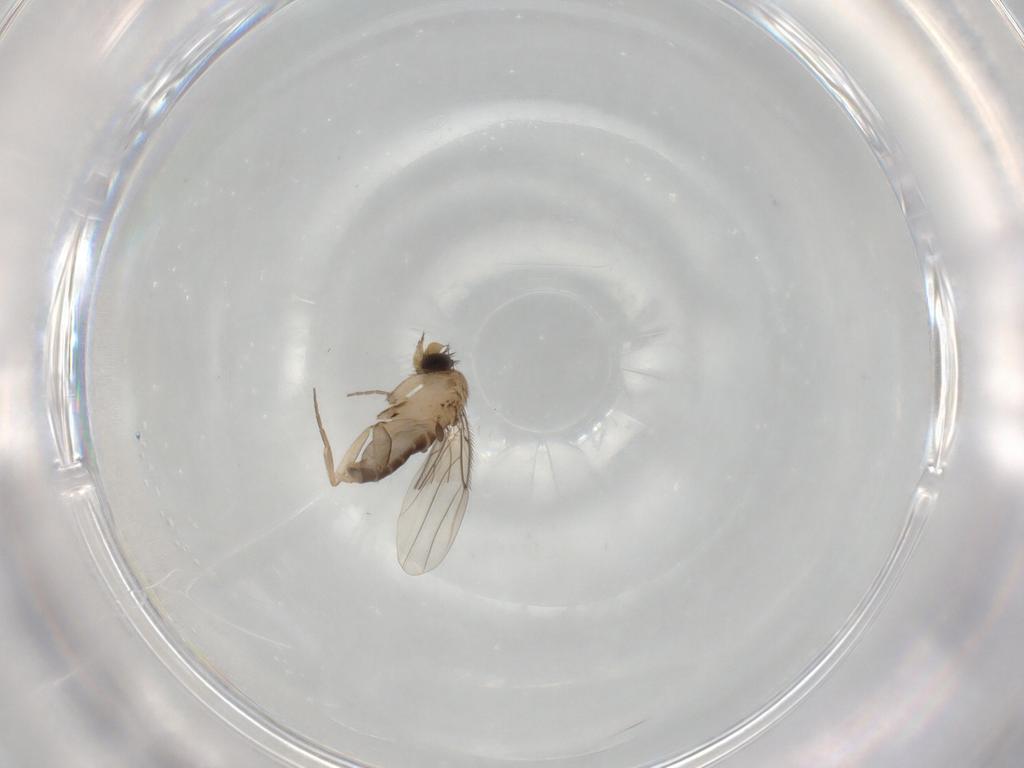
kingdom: Animalia
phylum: Arthropoda
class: Insecta
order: Diptera
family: Phoridae
